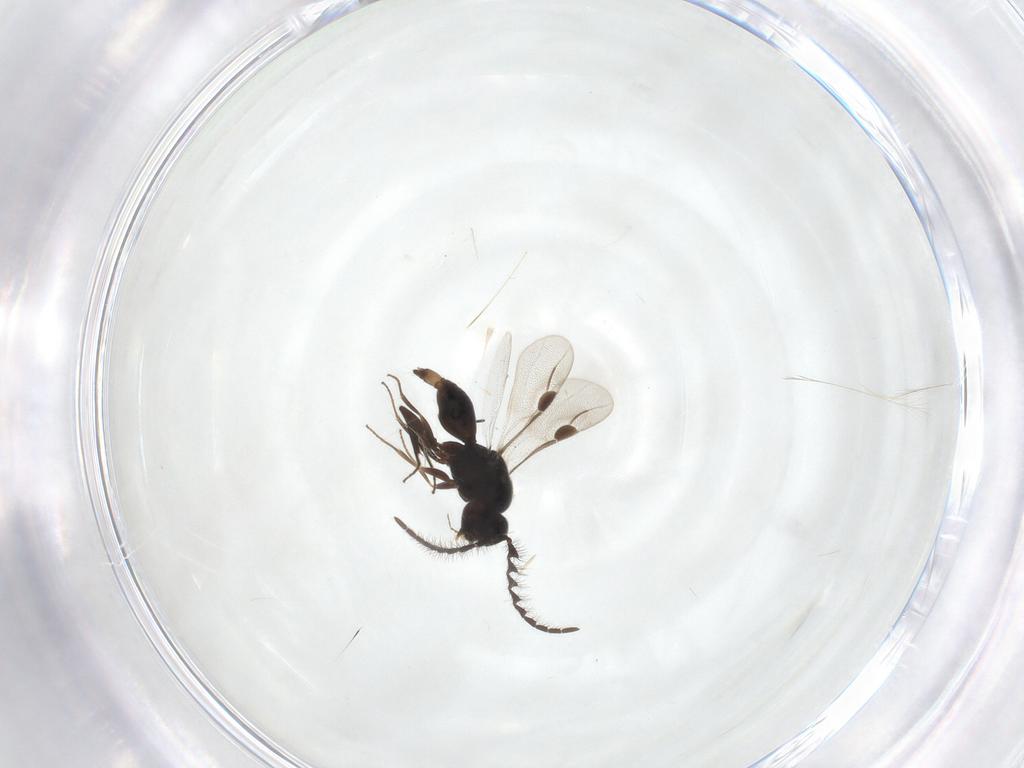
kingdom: Animalia
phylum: Arthropoda
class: Insecta
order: Hymenoptera
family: Megaspilidae
